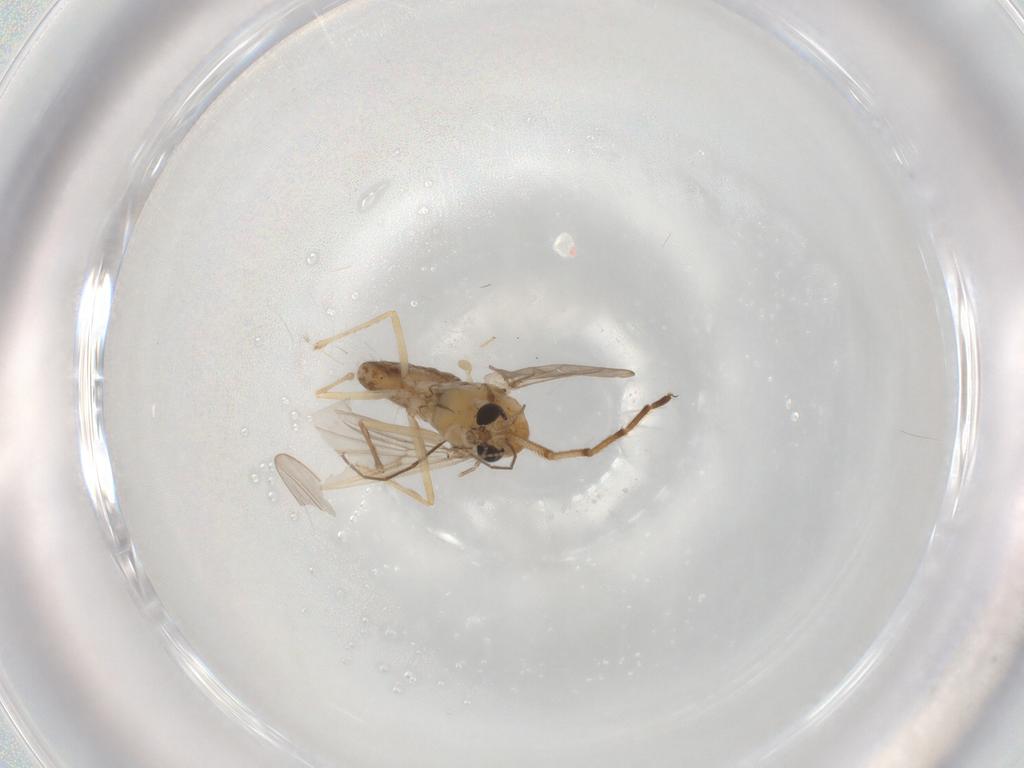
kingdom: Animalia
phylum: Arthropoda
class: Insecta
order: Diptera
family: Chironomidae
